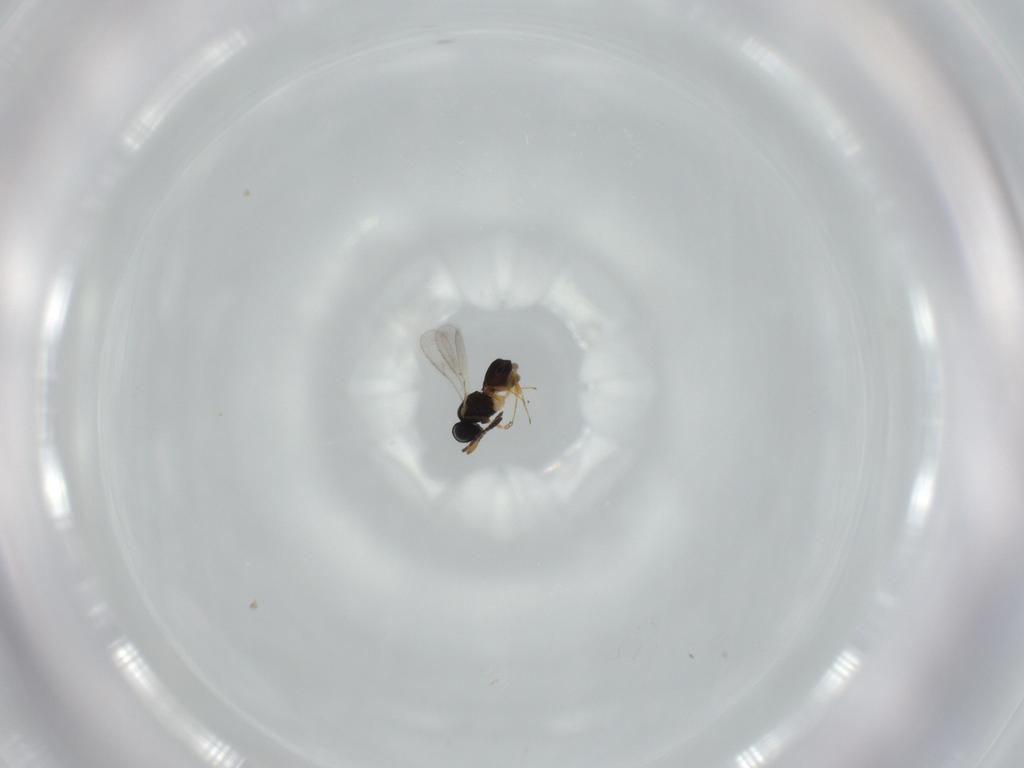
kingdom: Animalia
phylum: Arthropoda
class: Insecta
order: Hymenoptera
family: Scelionidae
